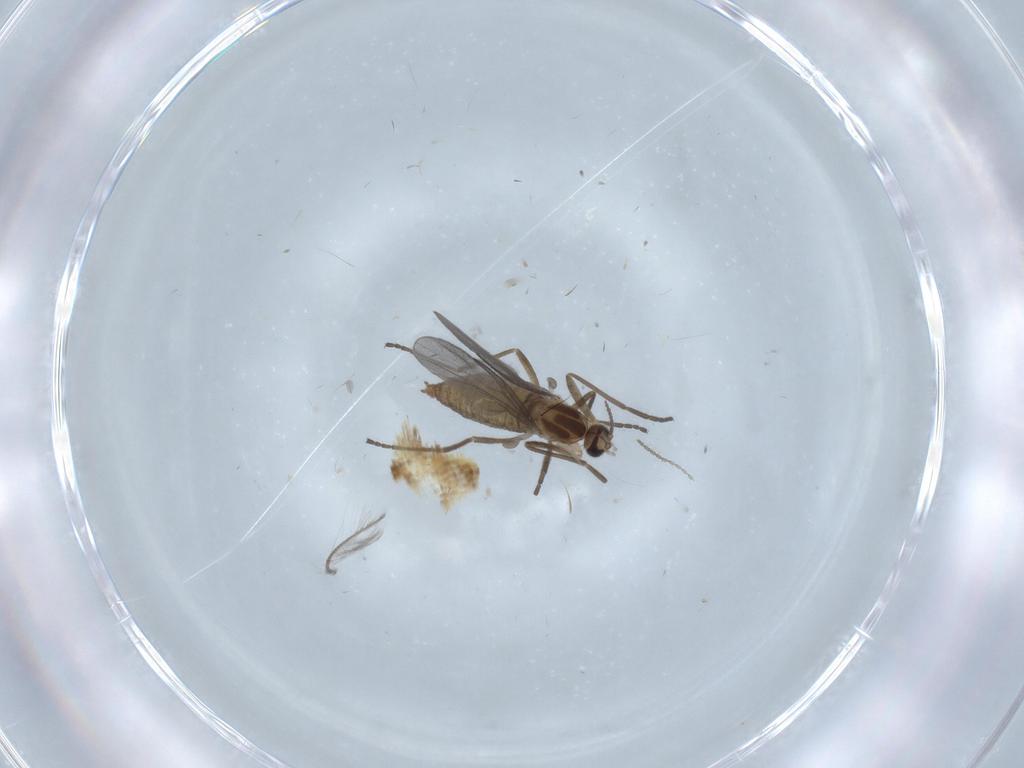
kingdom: Animalia
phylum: Arthropoda
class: Insecta
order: Diptera
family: Cecidomyiidae
